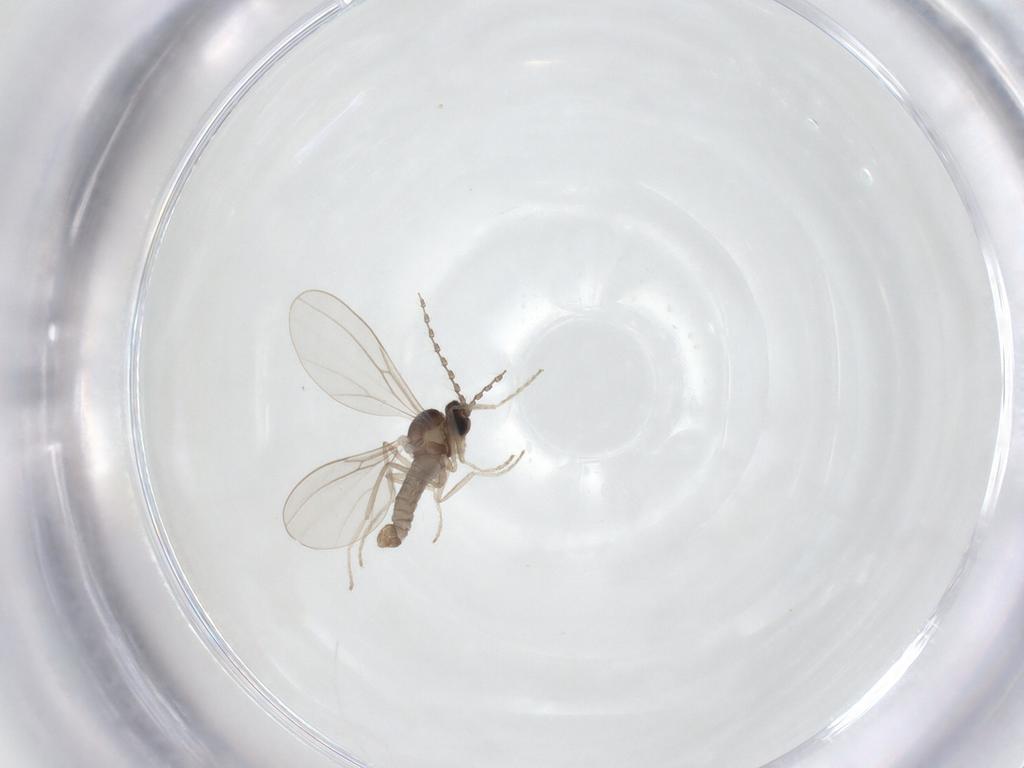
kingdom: Animalia
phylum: Arthropoda
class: Insecta
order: Diptera
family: Cecidomyiidae
